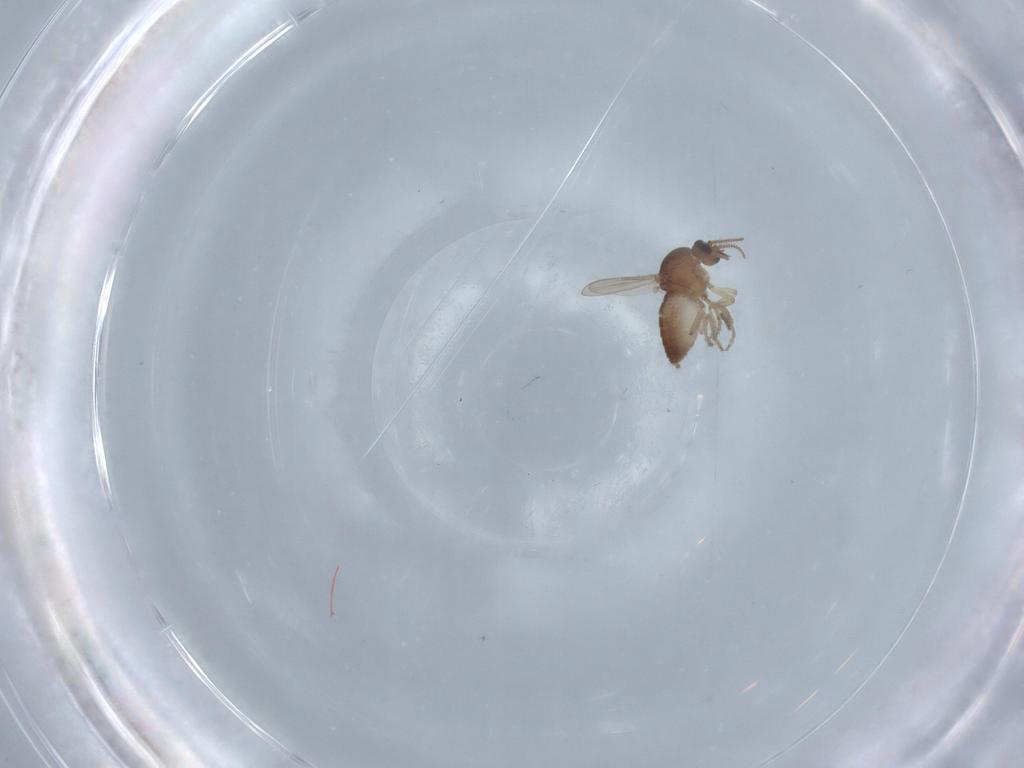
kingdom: Animalia
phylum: Arthropoda
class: Insecta
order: Diptera
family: Ceratopogonidae
